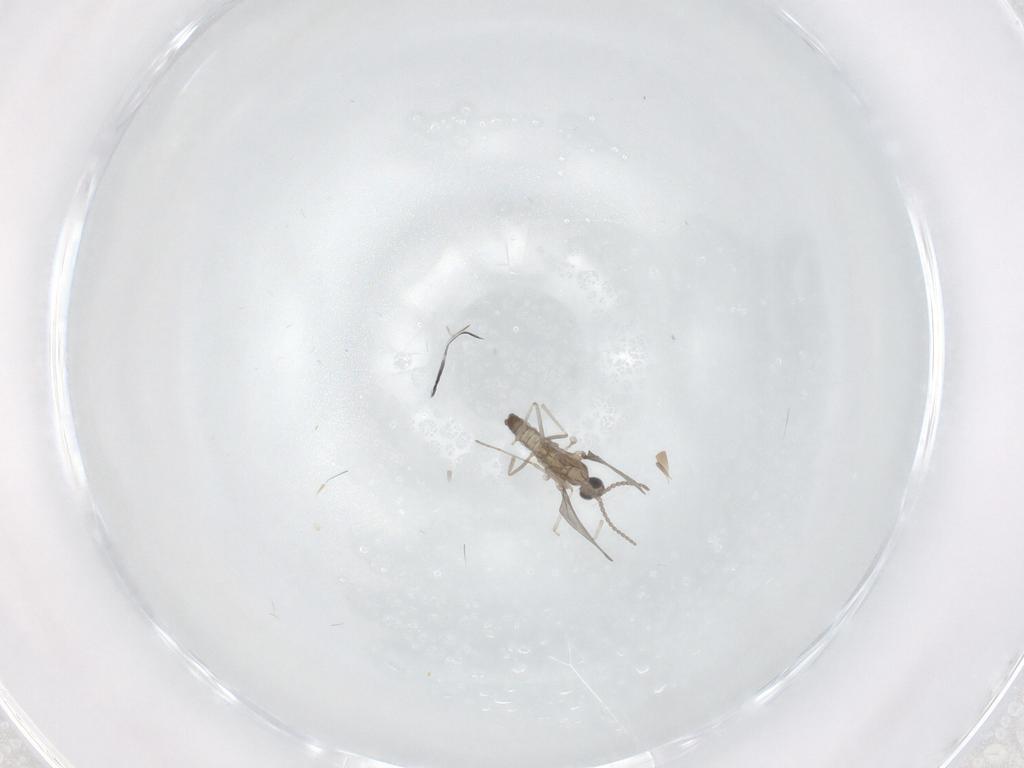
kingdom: Animalia
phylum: Arthropoda
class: Insecta
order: Diptera
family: Cecidomyiidae
